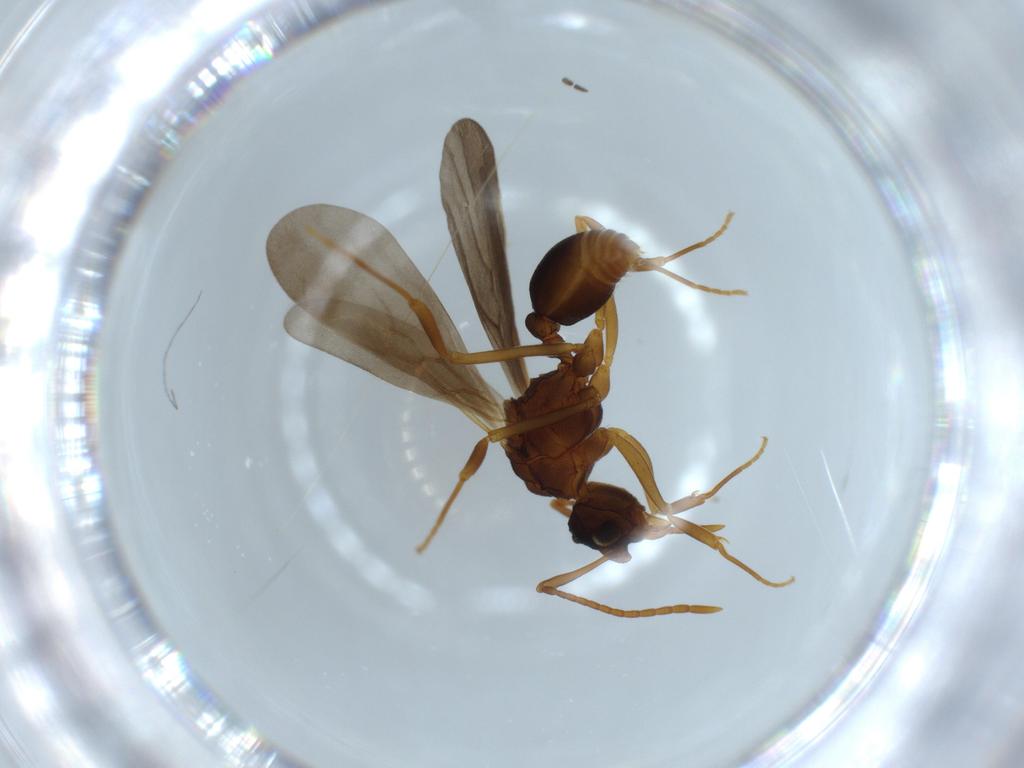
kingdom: Animalia
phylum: Arthropoda
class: Insecta
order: Hymenoptera
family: Formicidae
